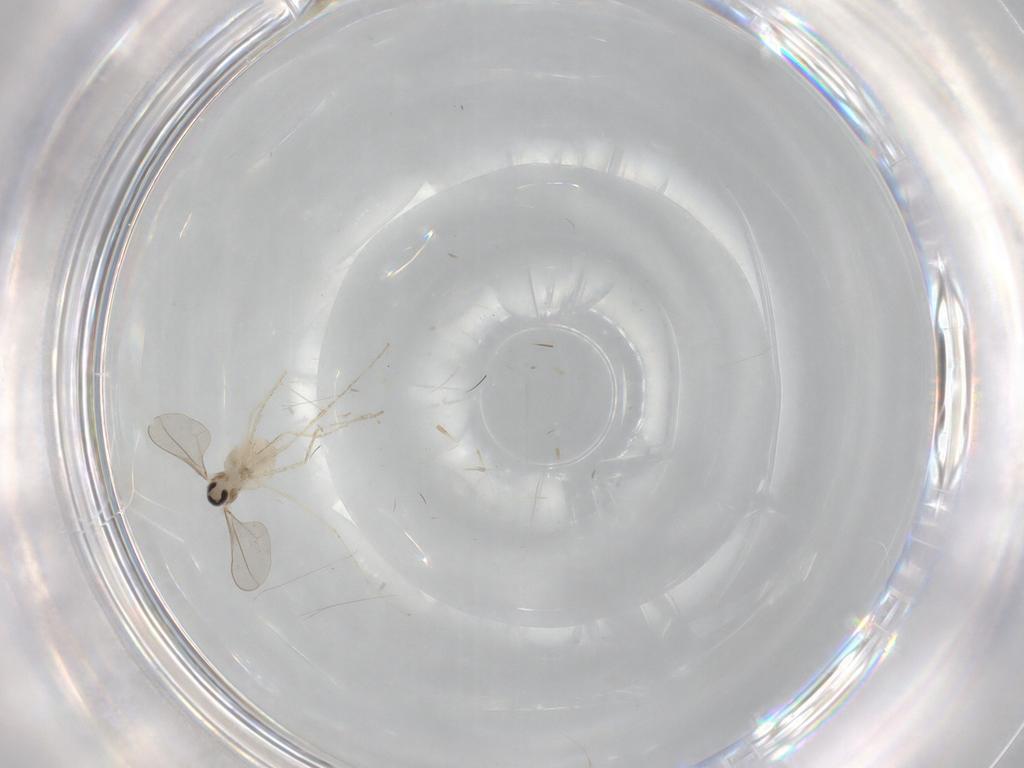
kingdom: Animalia
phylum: Arthropoda
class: Insecta
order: Diptera
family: Cecidomyiidae
